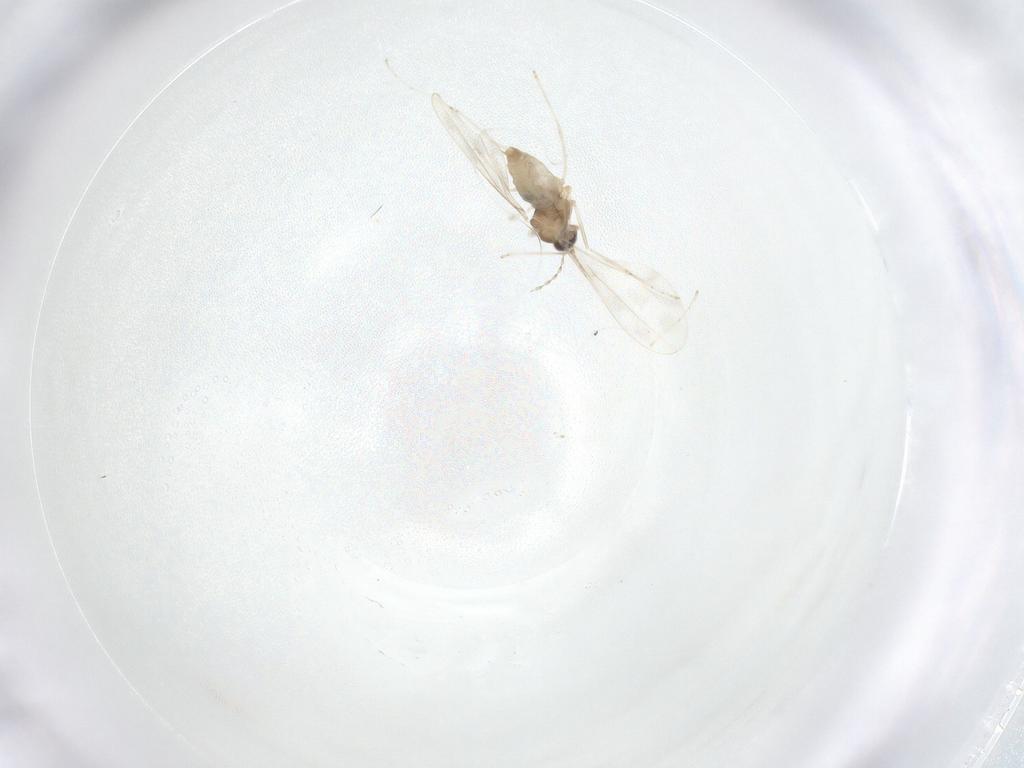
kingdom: Animalia
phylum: Arthropoda
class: Insecta
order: Diptera
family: Cecidomyiidae
